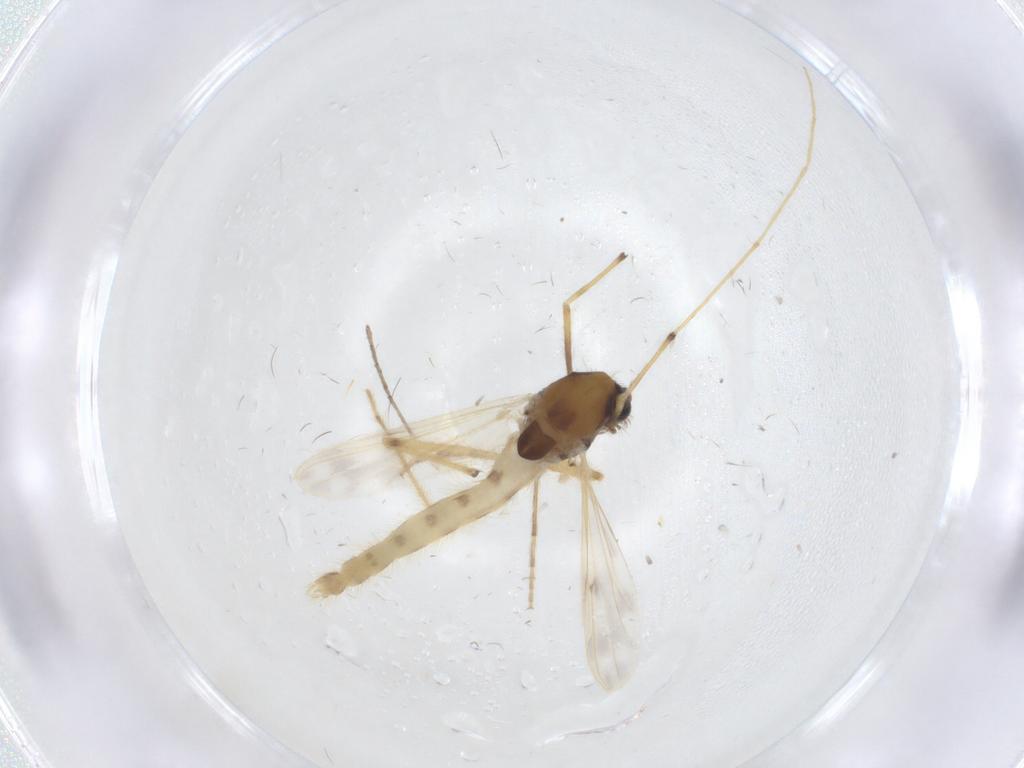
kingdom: Animalia
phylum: Arthropoda
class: Insecta
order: Diptera
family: Chironomidae
